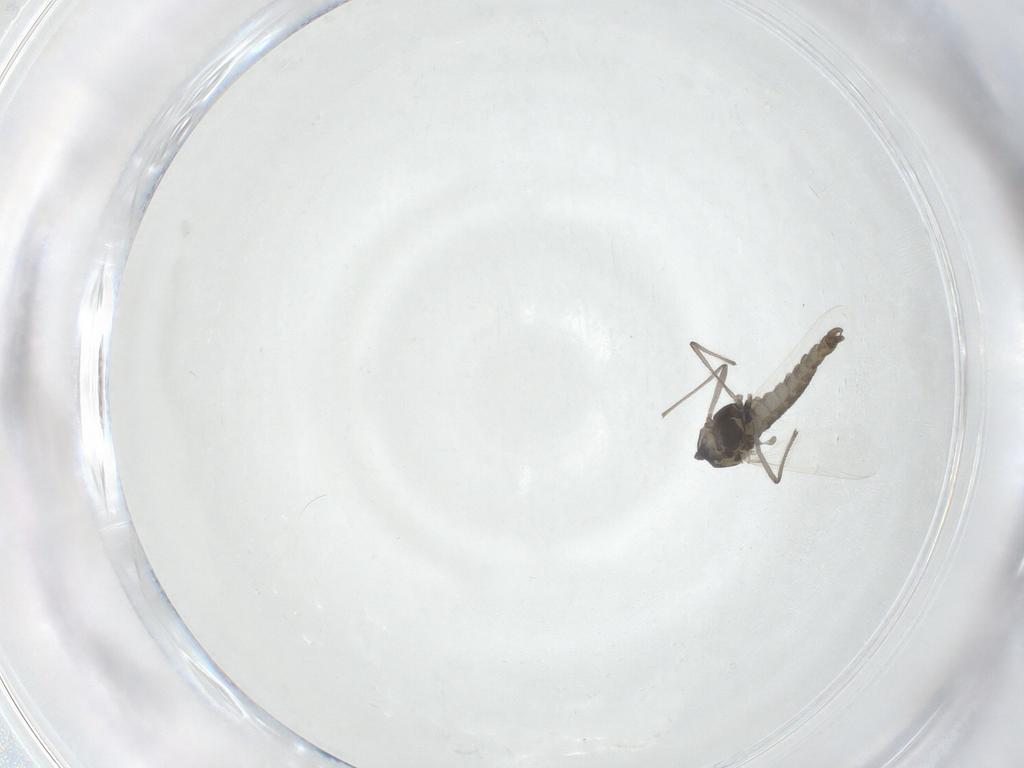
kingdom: Animalia
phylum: Arthropoda
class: Insecta
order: Diptera
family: Chironomidae
